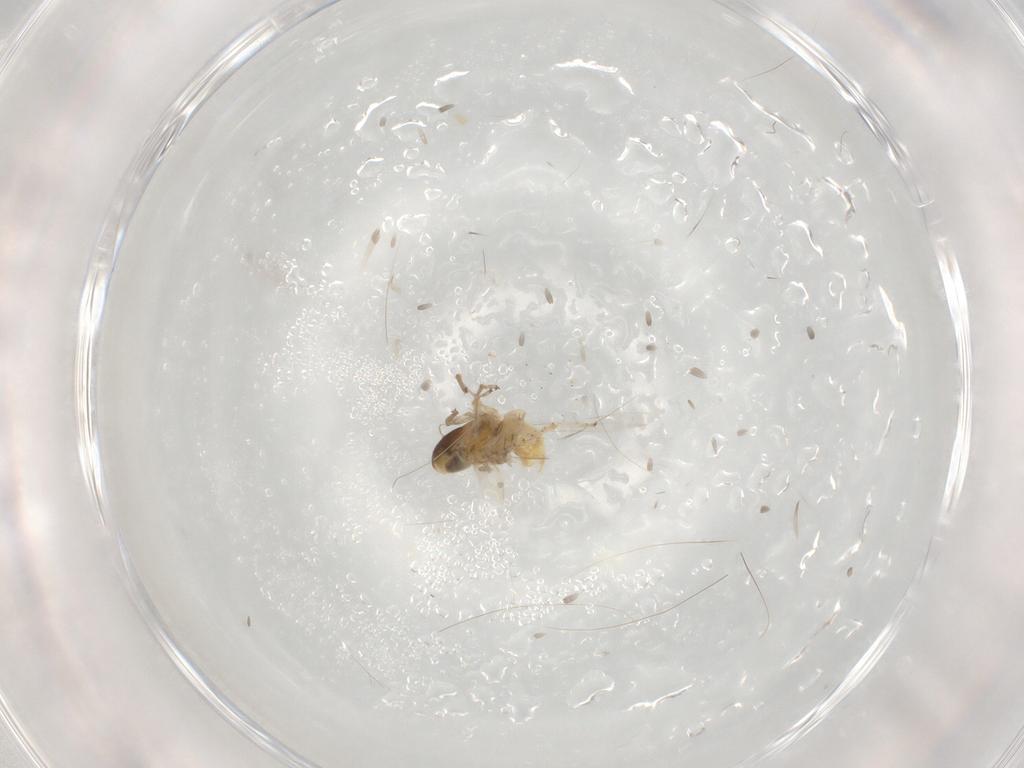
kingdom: Animalia
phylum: Arthropoda
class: Insecta
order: Hemiptera
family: Cicadellidae
